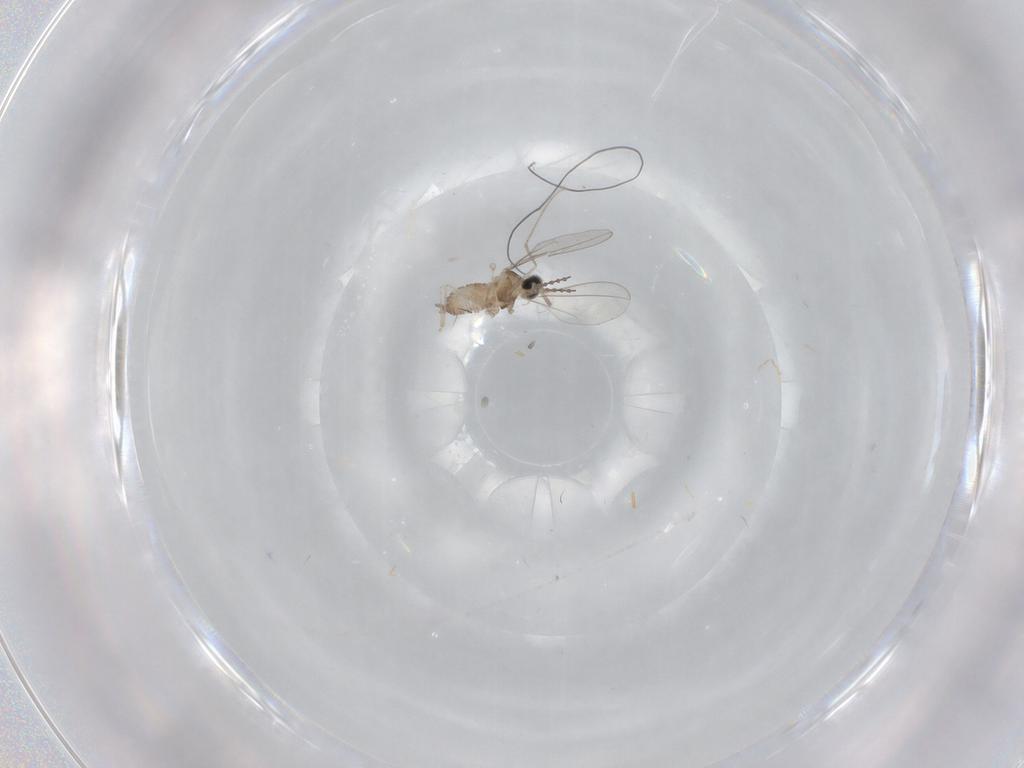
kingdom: Animalia
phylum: Arthropoda
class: Insecta
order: Diptera
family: Cecidomyiidae
